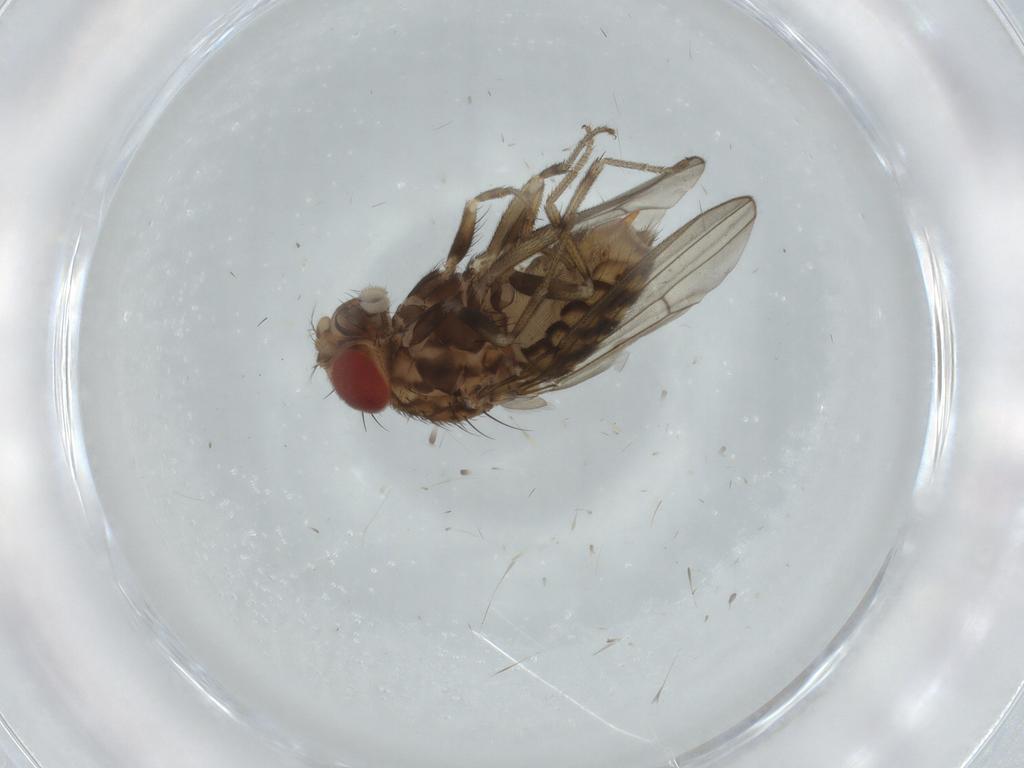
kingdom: Animalia
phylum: Arthropoda
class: Insecta
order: Diptera
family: Drosophilidae
